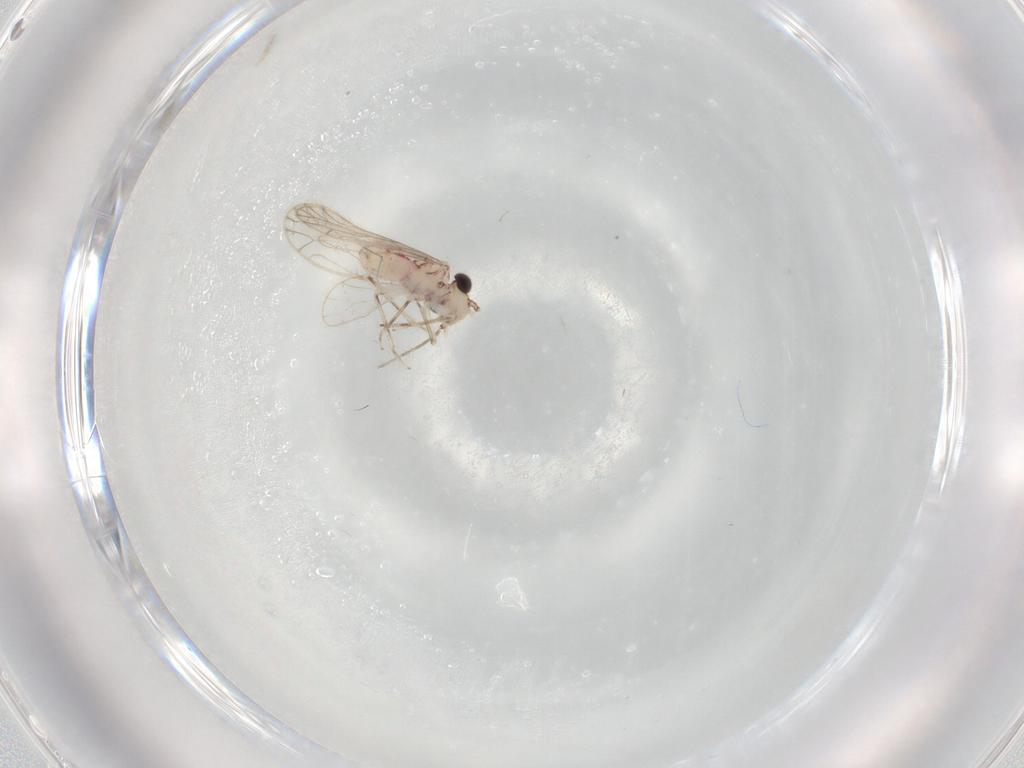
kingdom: Animalia
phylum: Arthropoda
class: Insecta
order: Psocodea
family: Caeciliusidae
